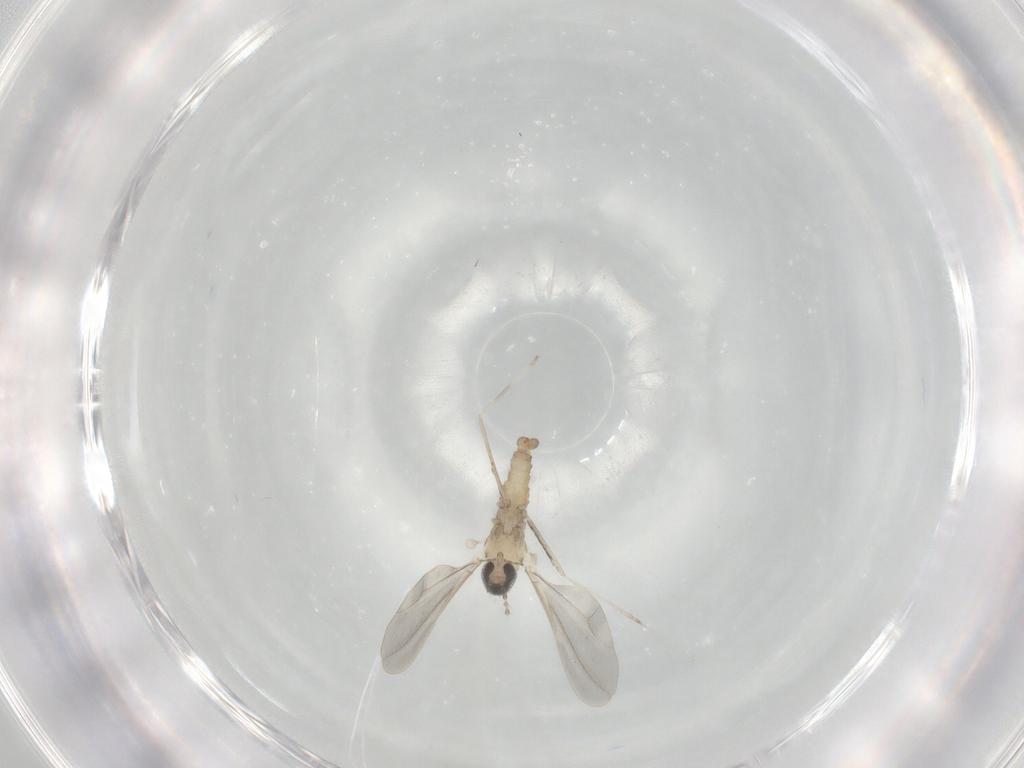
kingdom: Animalia
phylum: Arthropoda
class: Insecta
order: Diptera
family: Cecidomyiidae
